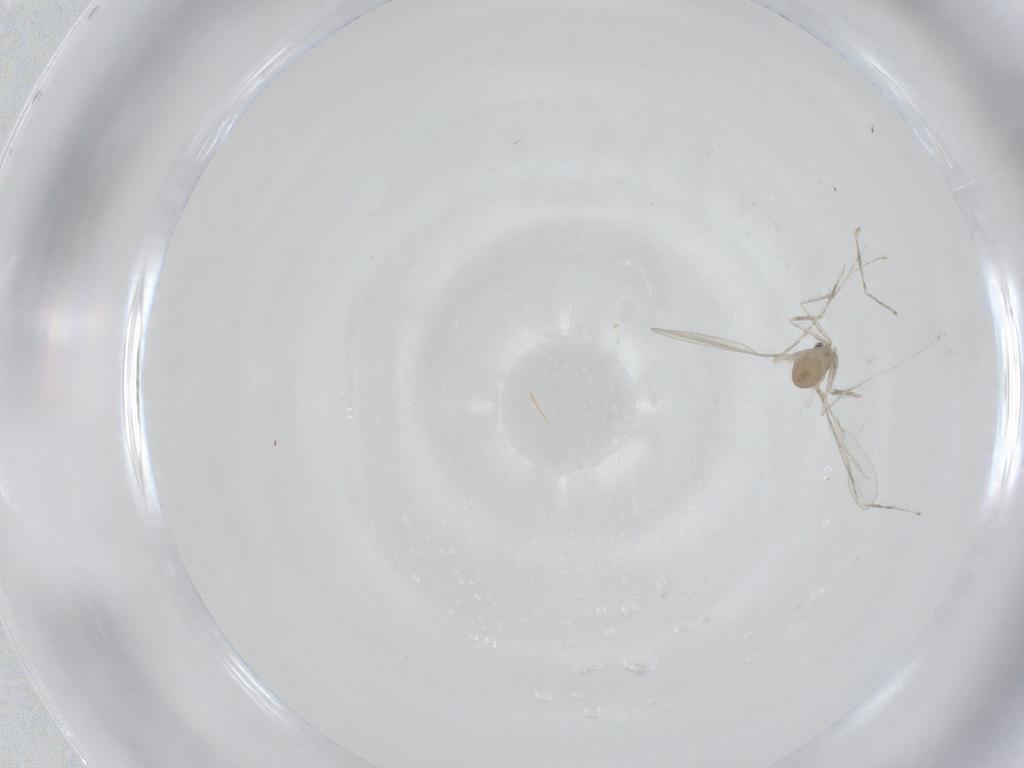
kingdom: Animalia
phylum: Arthropoda
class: Insecta
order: Diptera
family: Cecidomyiidae
